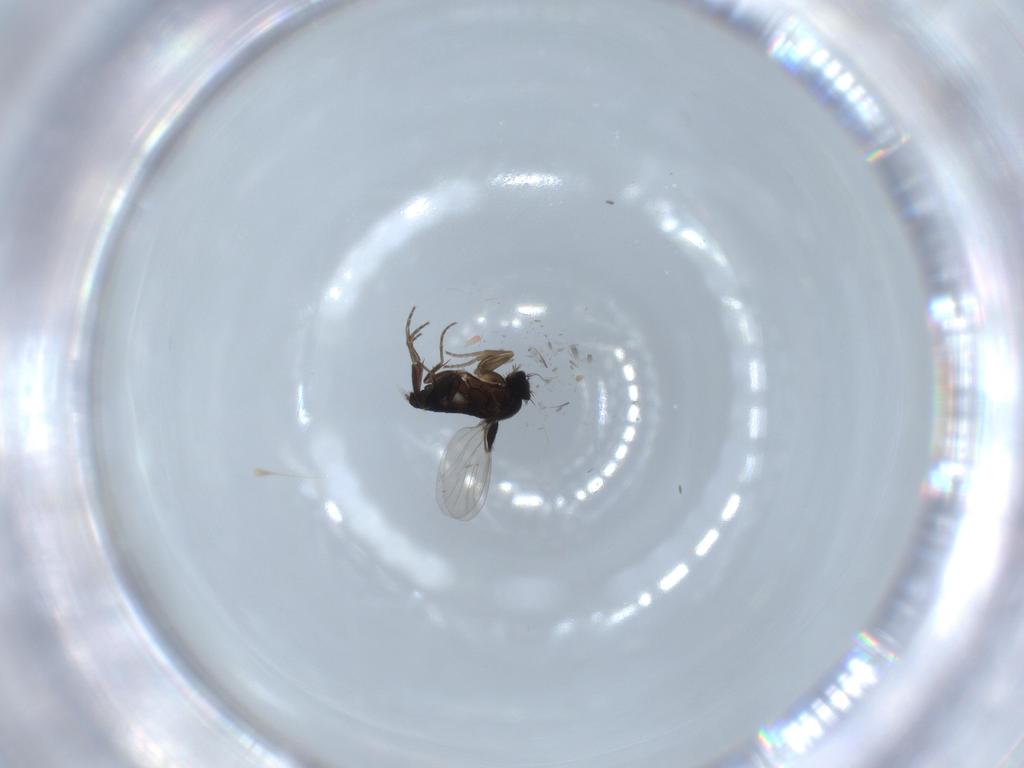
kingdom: Animalia
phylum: Arthropoda
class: Insecta
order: Diptera
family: Phoridae
